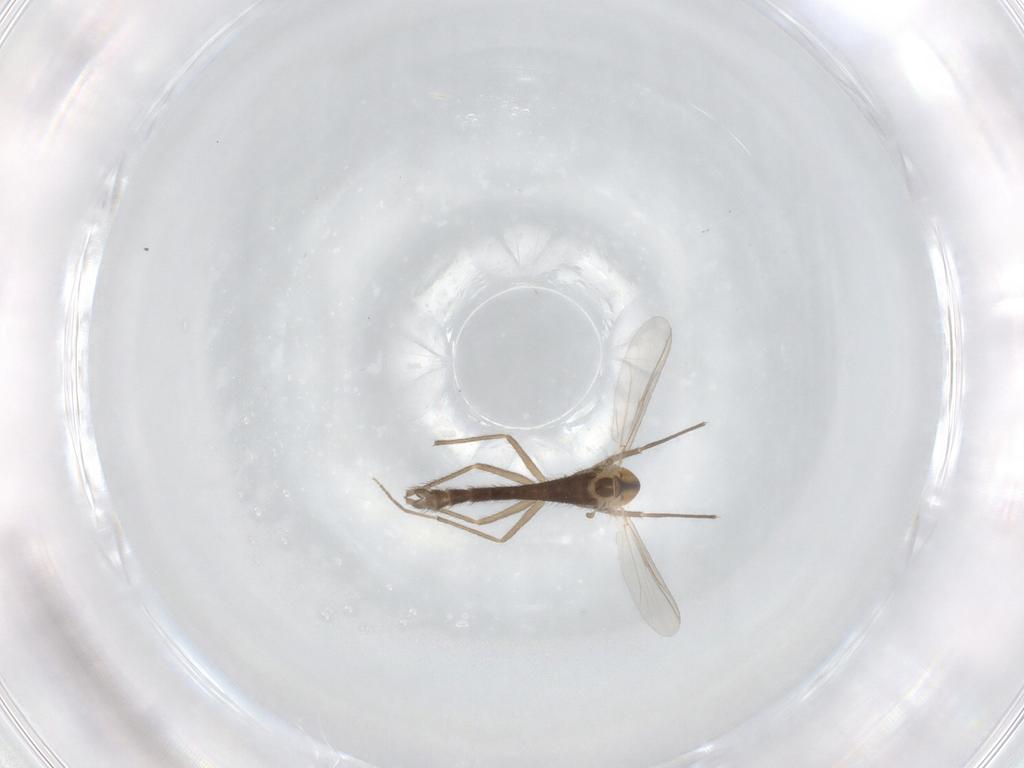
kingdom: Animalia
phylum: Arthropoda
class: Insecta
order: Diptera
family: Chironomidae
